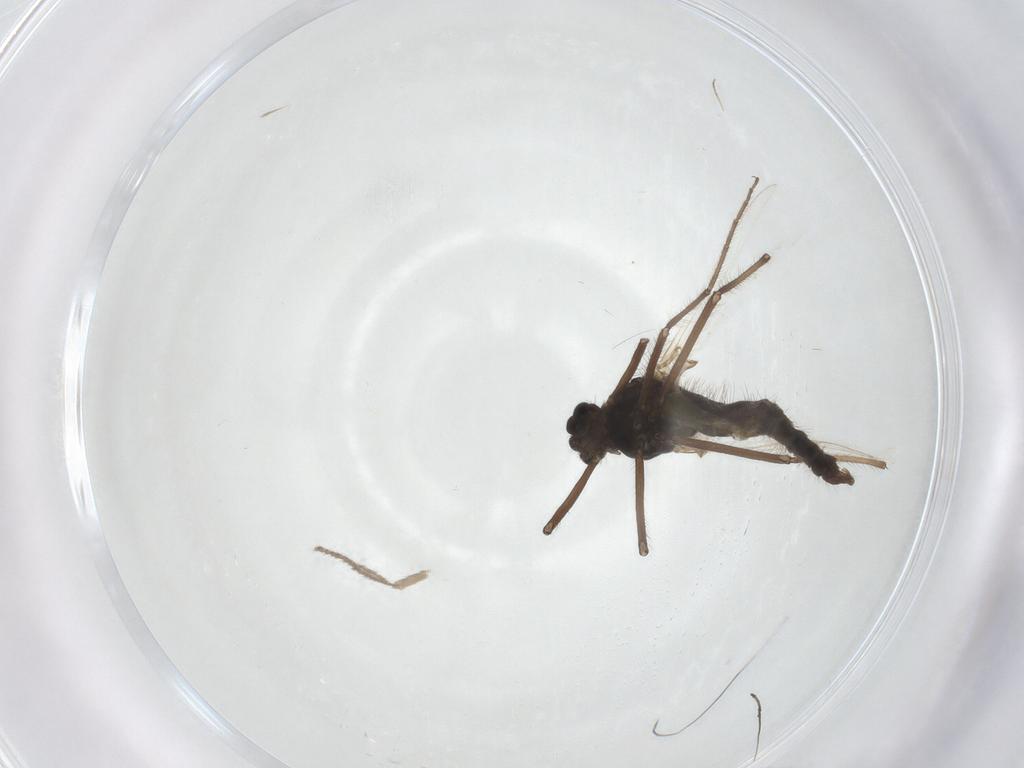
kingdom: Animalia
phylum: Arthropoda
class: Insecta
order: Diptera
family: Chironomidae
